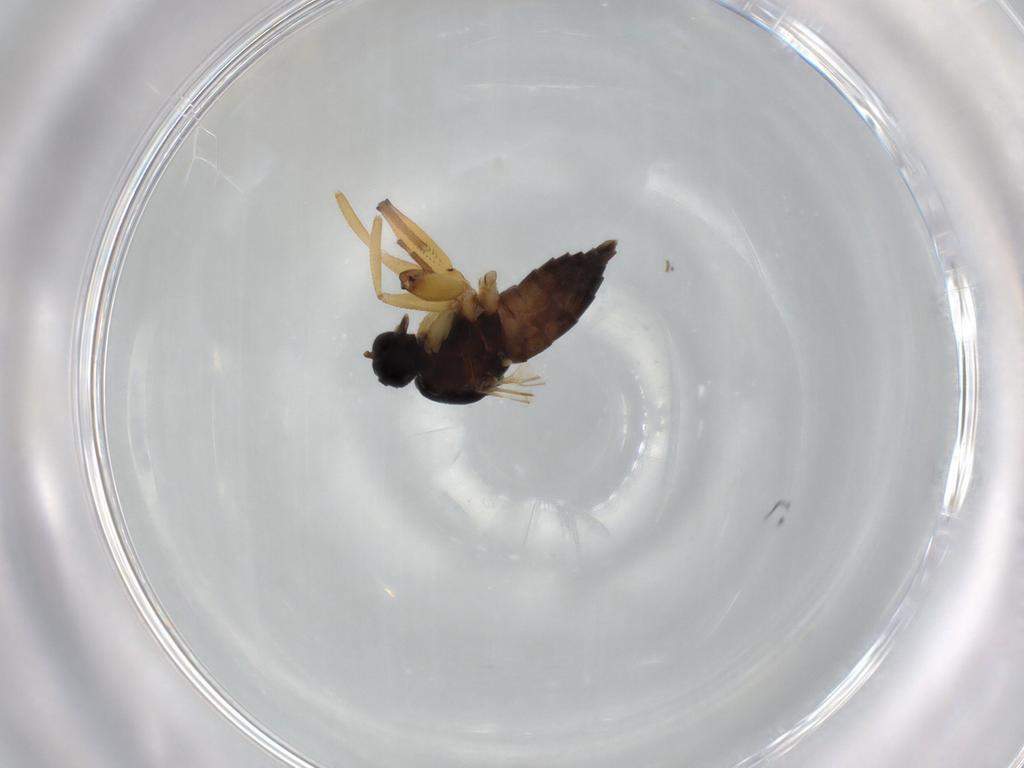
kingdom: Animalia
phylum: Arthropoda
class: Insecta
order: Diptera
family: Hybotidae
